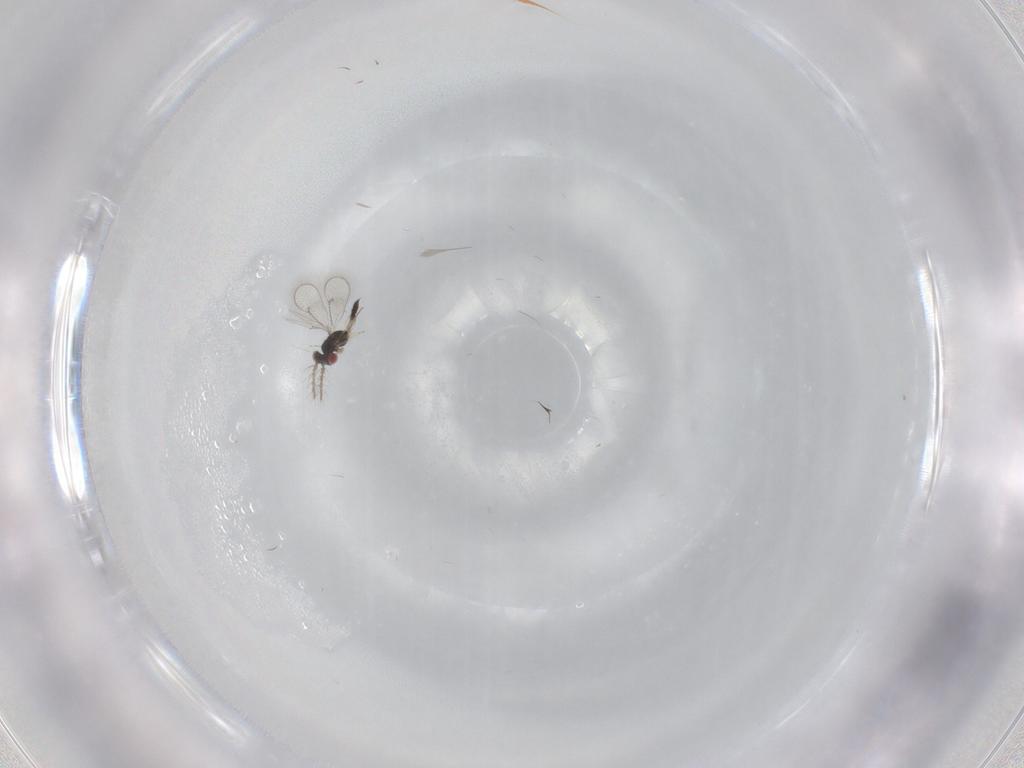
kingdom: Animalia
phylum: Arthropoda
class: Insecta
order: Hymenoptera
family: Eulophidae
